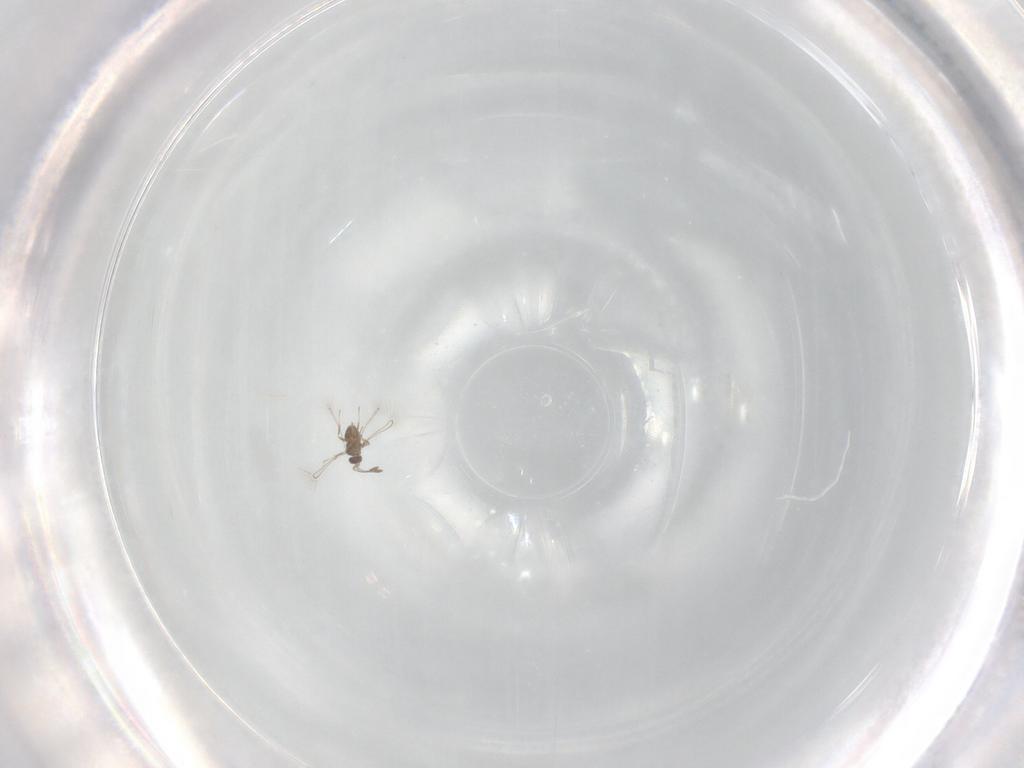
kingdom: Animalia
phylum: Arthropoda
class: Insecta
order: Hymenoptera
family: Mymaridae
